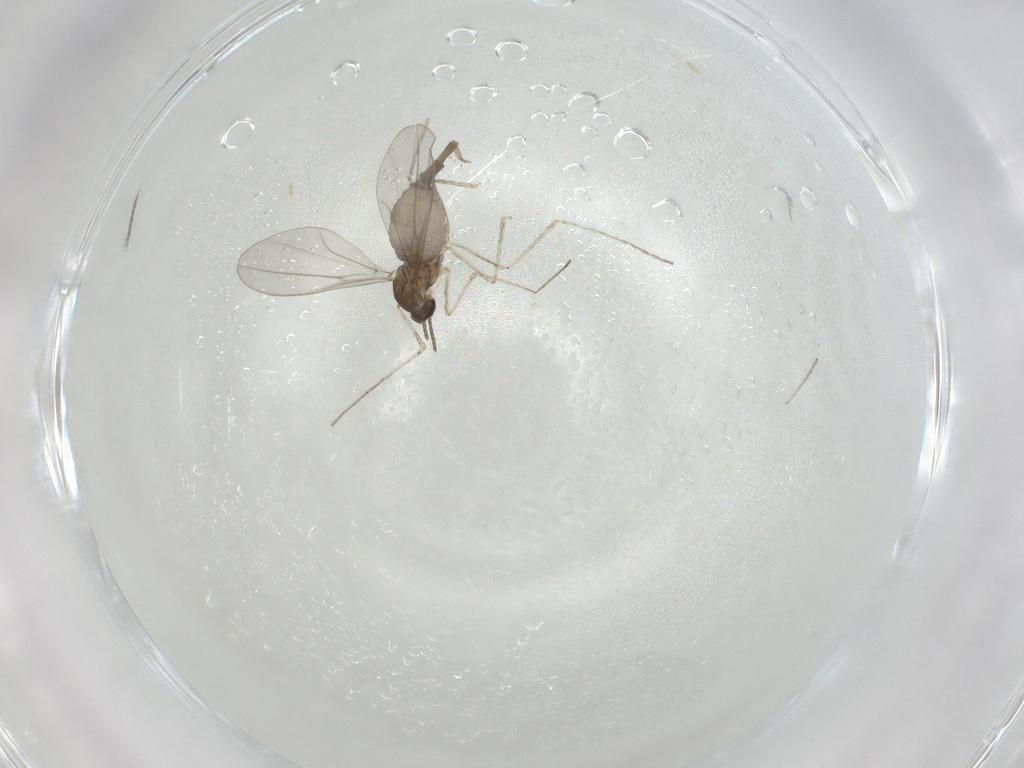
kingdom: Animalia
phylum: Arthropoda
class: Insecta
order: Diptera
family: Cecidomyiidae
